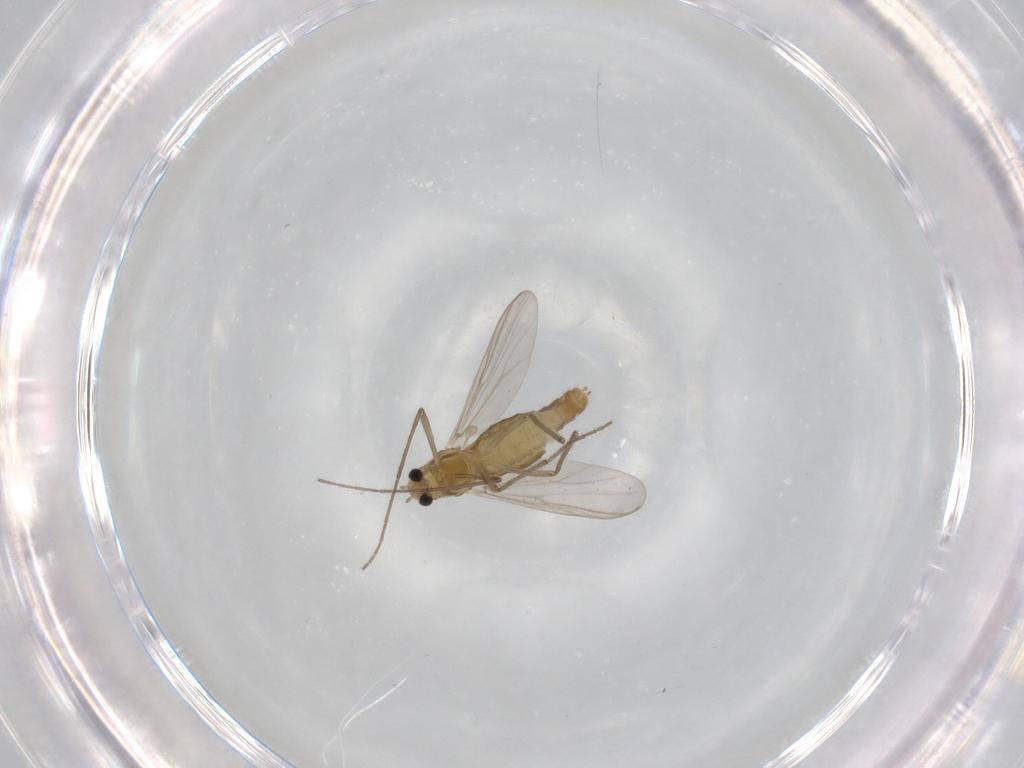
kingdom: Animalia
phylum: Arthropoda
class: Insecta
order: Diptera
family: Chironomidae
